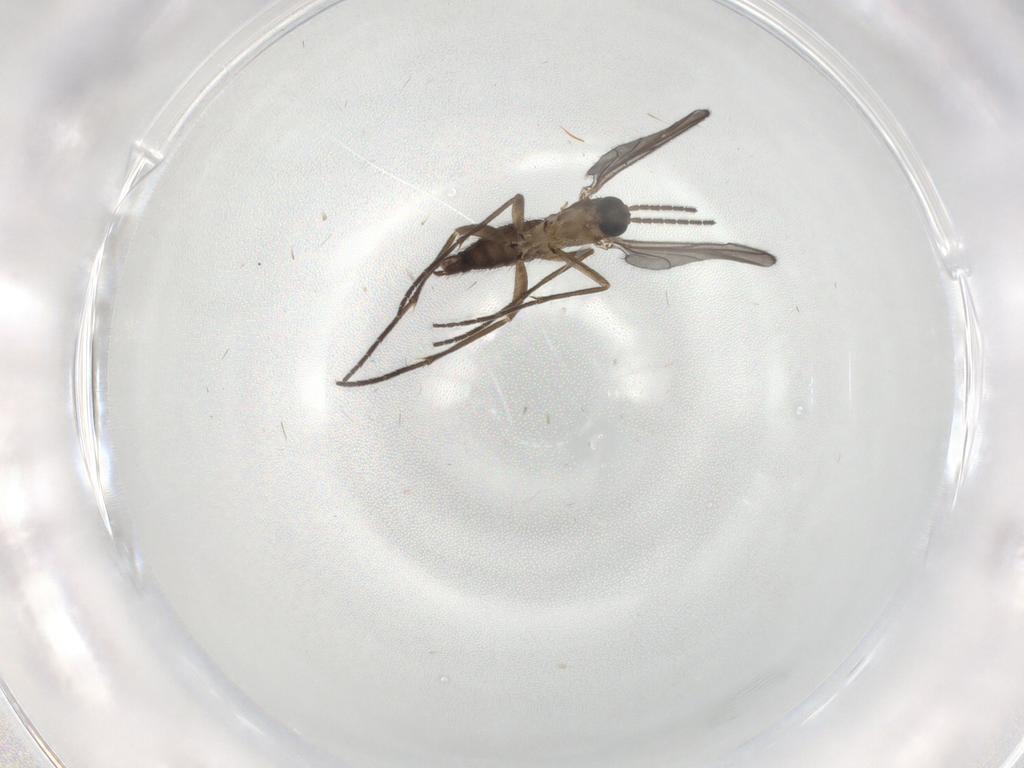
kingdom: Animalia
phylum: Arthropoda
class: Insecta
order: Diptera
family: Sciaridae
